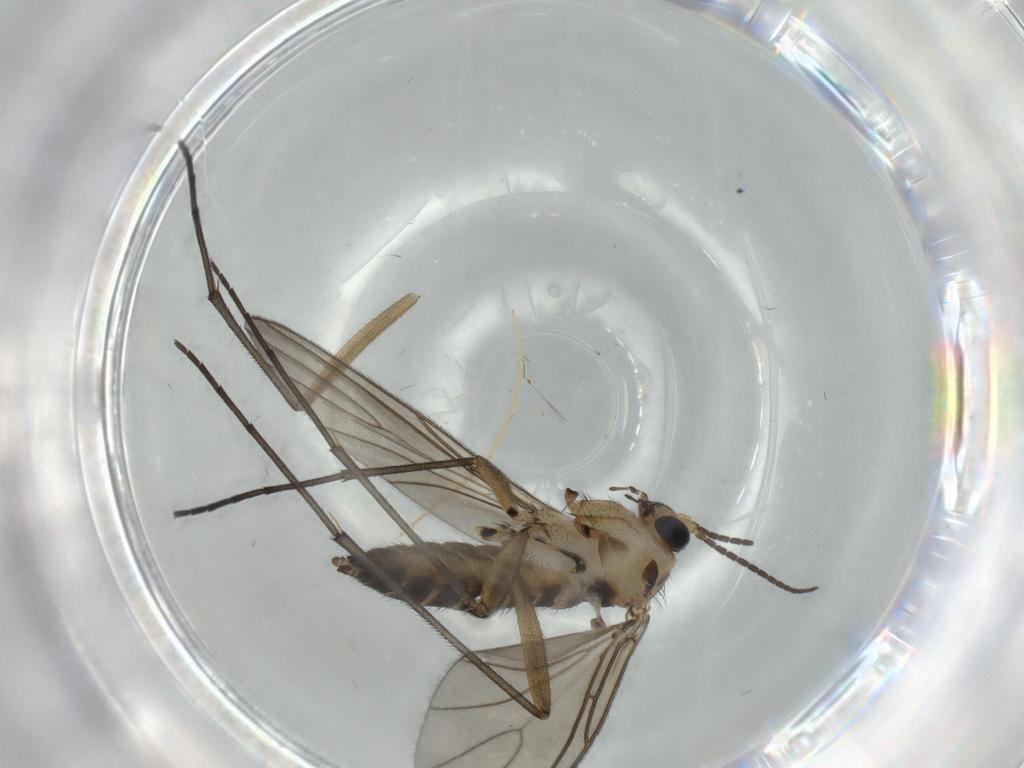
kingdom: Animalia
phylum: Arthropoda
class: Insecta
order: Diptera
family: Sciaridae
